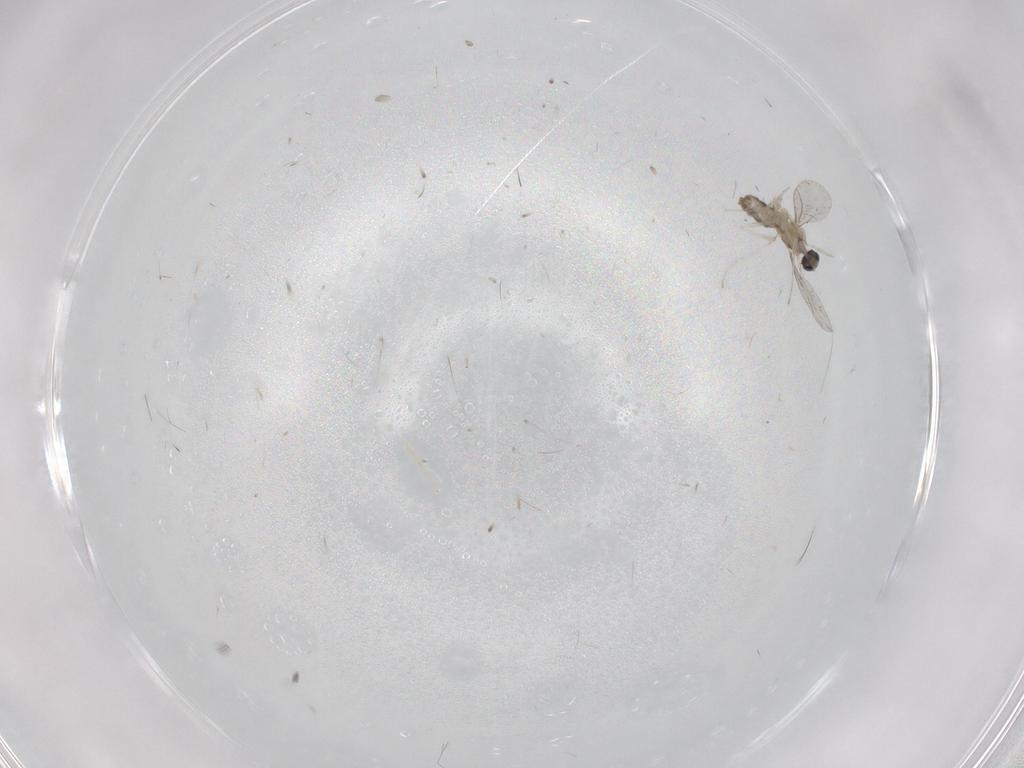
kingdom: Animalia
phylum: Arthropoda
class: Insecta
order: Diptera
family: Cecidomyiidae
